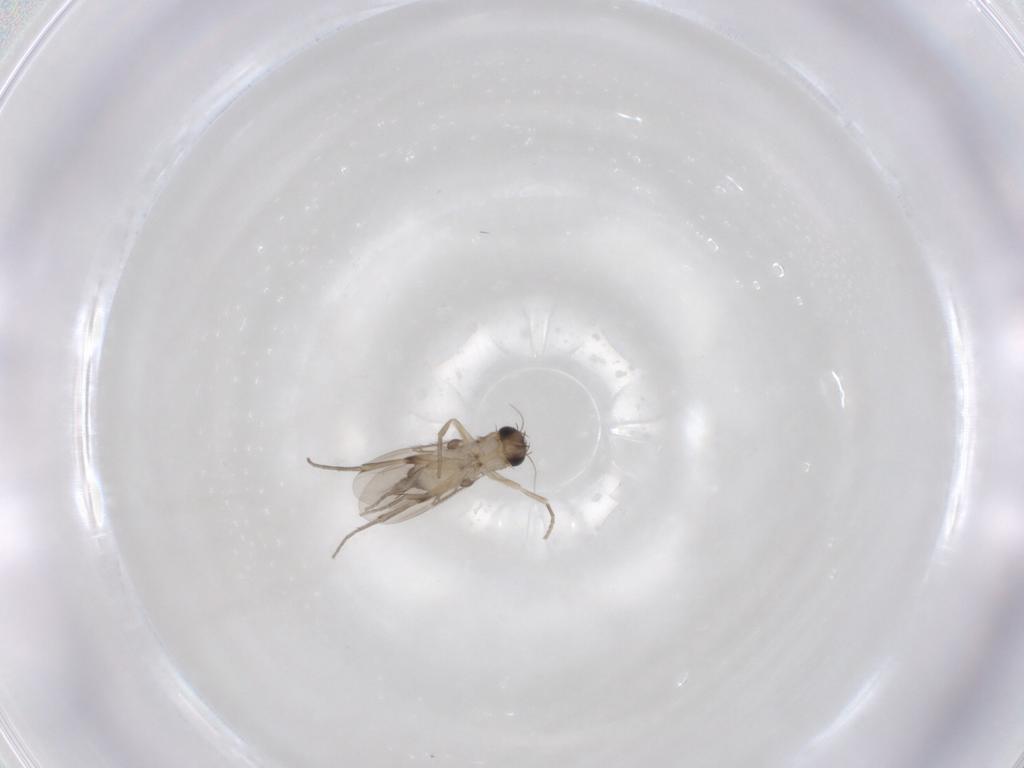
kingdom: Animalia
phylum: Arthropoda
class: Insecta
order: Diptera
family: Phoridae
